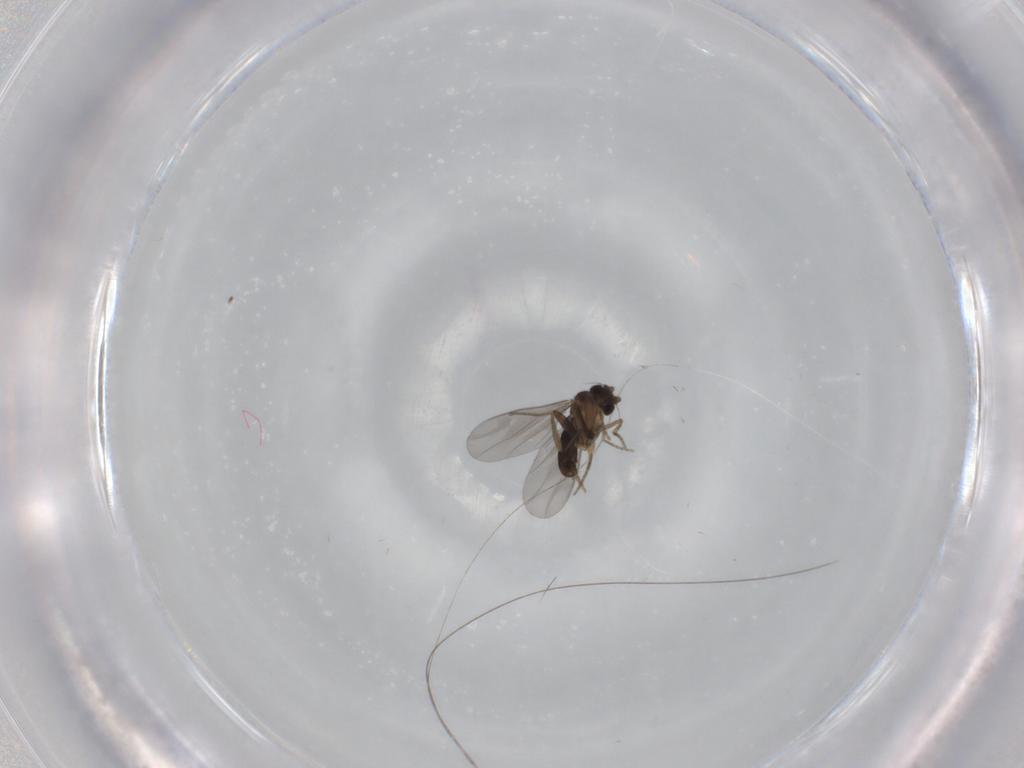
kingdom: Animalia
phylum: Arthropoda
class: Insecta
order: Diptera
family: Phoridae
